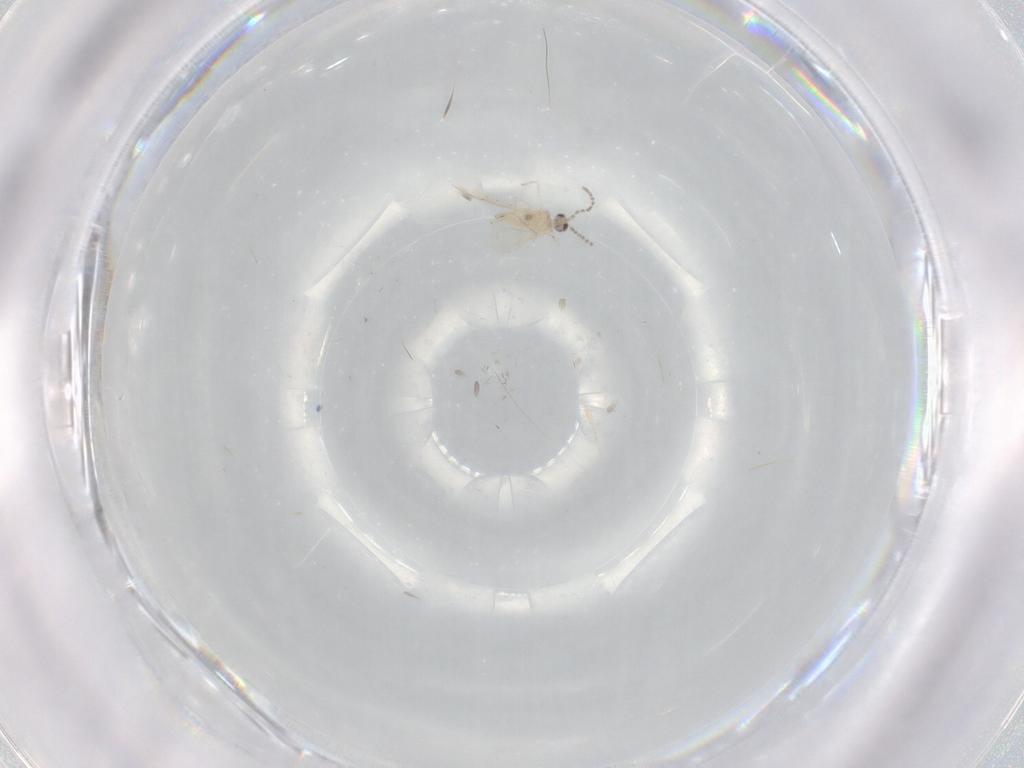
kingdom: Animalia
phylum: Arthropoda
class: Insecta
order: Diptera
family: Cecidomyiidae
